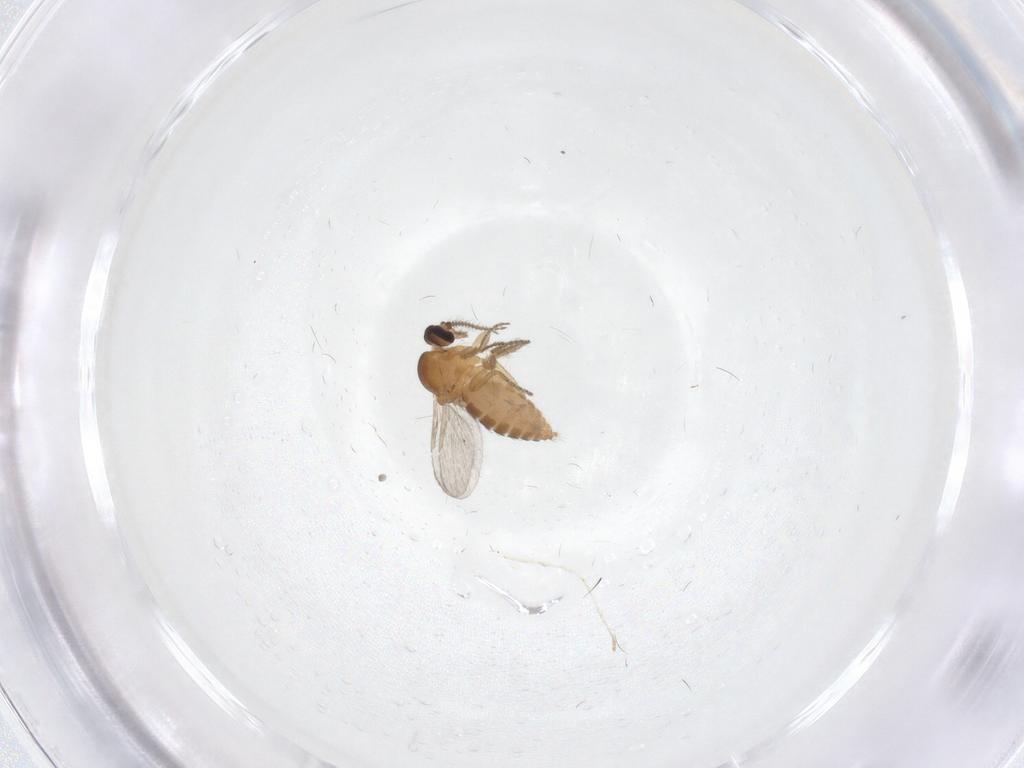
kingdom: Animalia
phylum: Arthropoda
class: Insecta
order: Diptera
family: Ceratopogonidae
